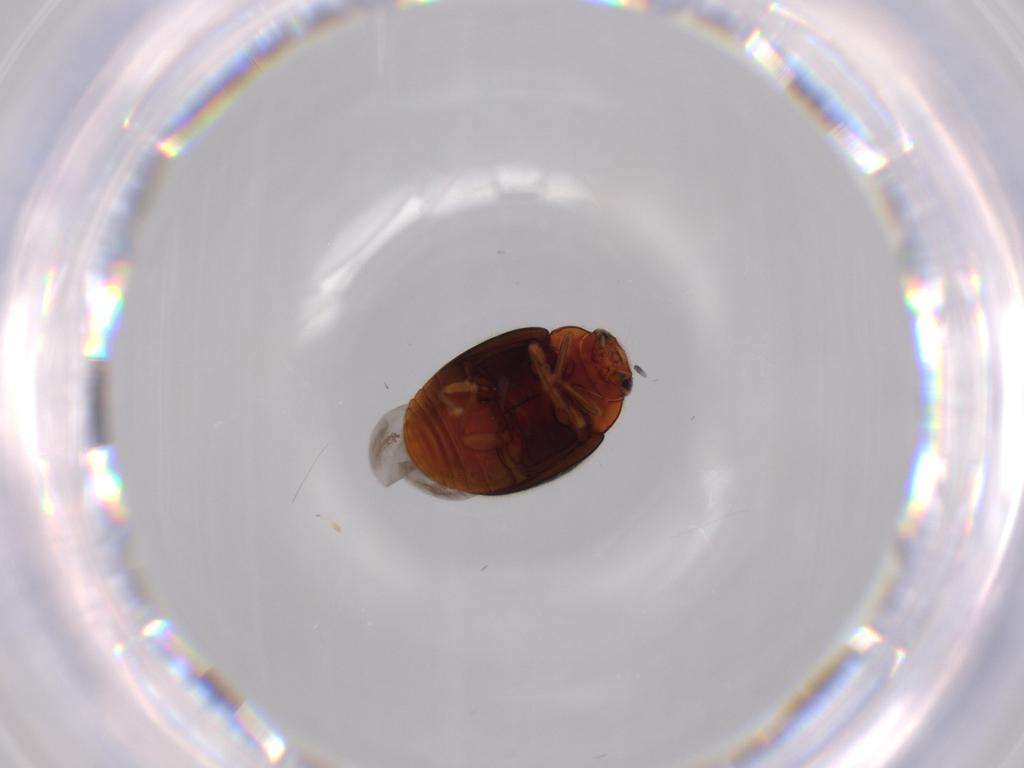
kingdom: Animalia
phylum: Arthropoda
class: Insecta
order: Coleoptera
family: Coccinellidae
